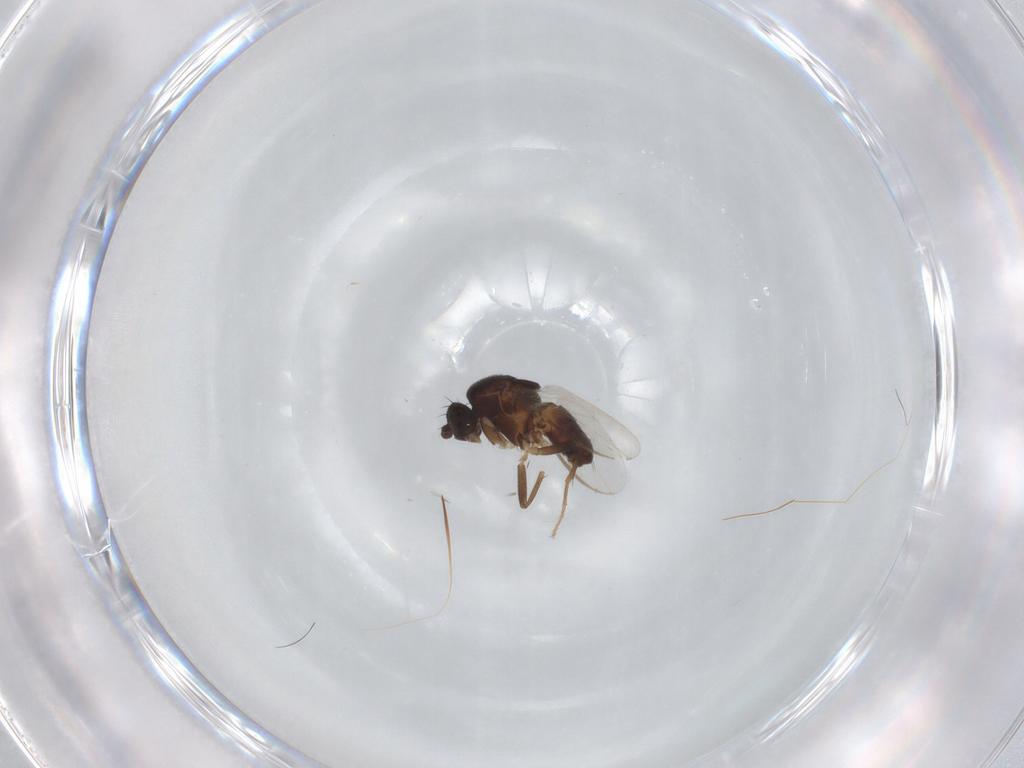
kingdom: Animalia
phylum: Arthropoda
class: Insecta
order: Diptera
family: Sphaeroceridae
